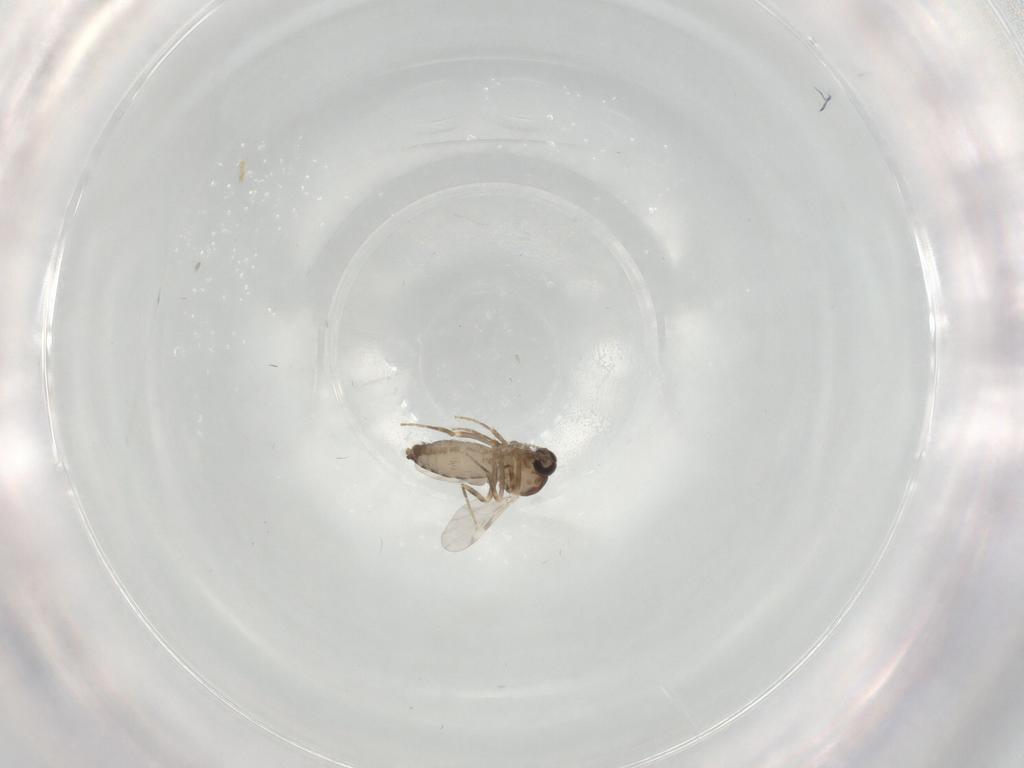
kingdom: Animalia
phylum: Arthropoda
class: Insecta
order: Diptera
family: Ceratopogonidae
